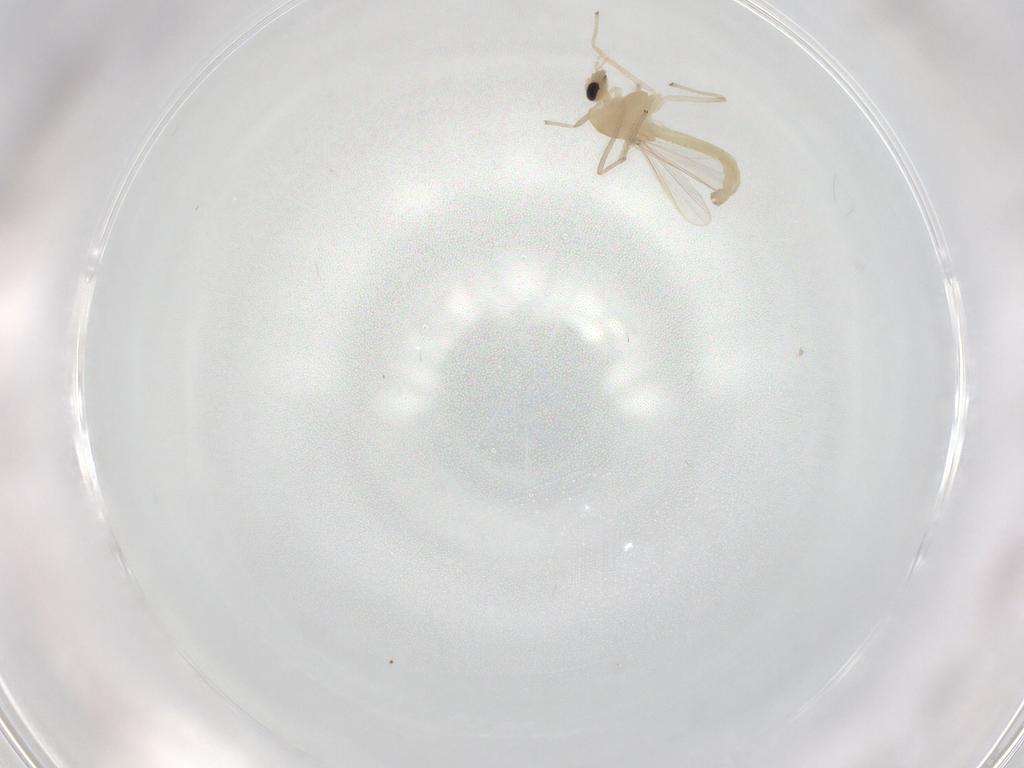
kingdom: Animalia
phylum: Arthropoda
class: Insecta
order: Diptera
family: Chironomidae
